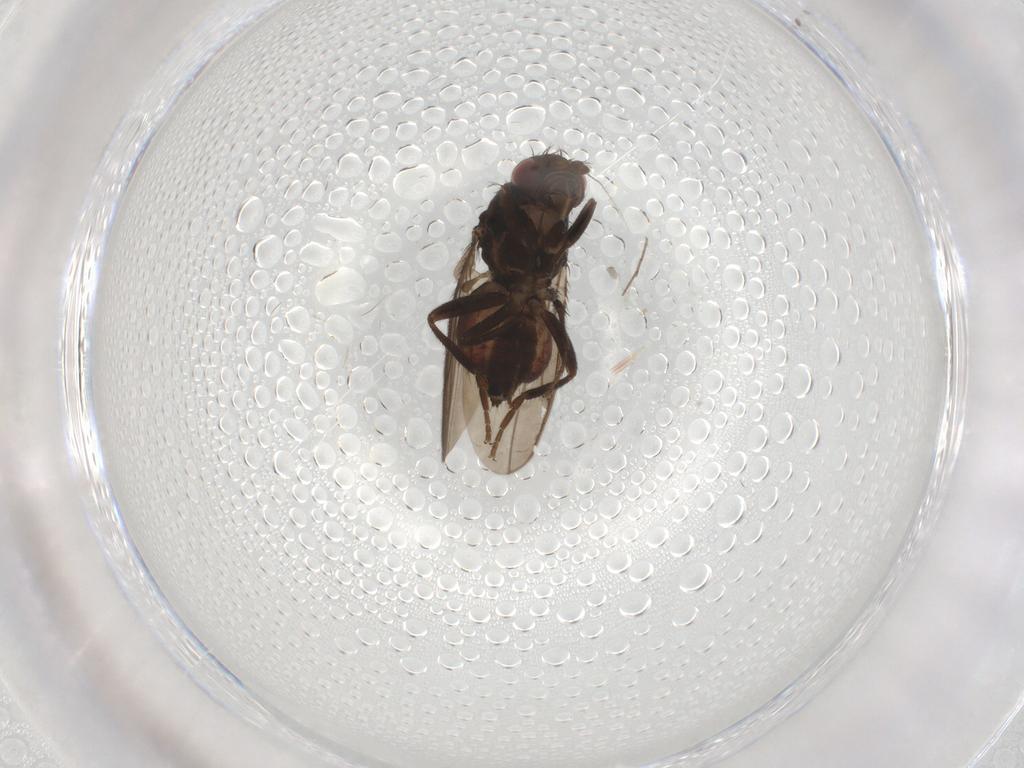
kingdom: Animalia
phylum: Arthropoda
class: Insecta
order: Diptera
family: Sphaeroceridae
